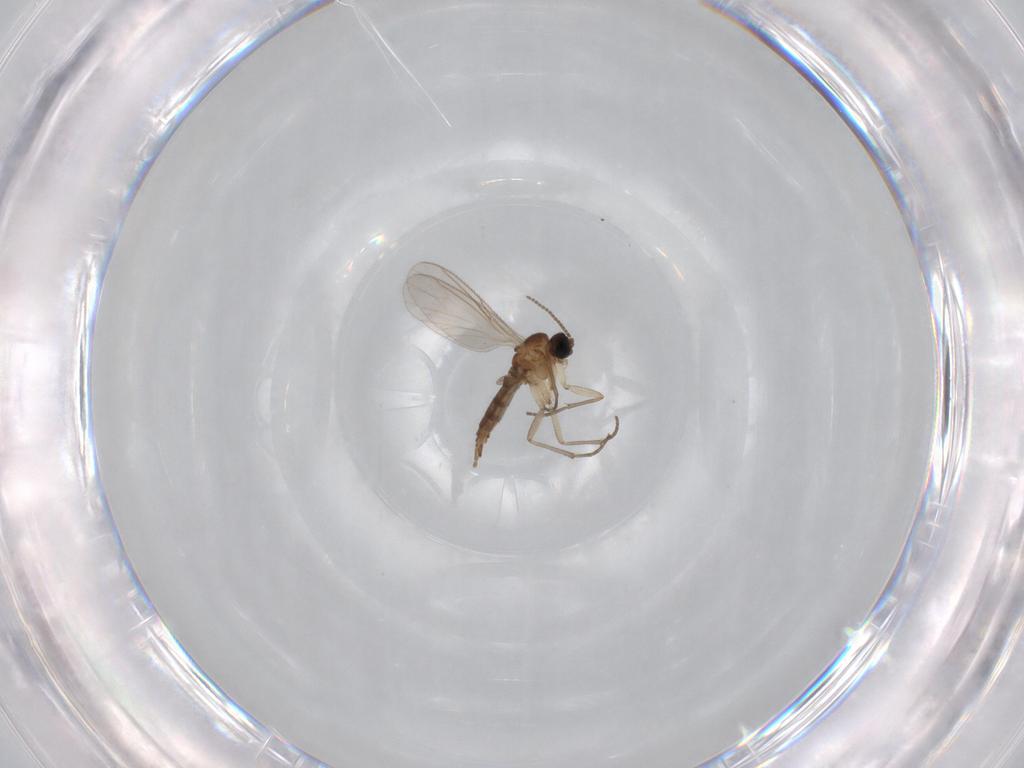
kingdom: Animalia
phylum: Arthropoda
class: Insecta
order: Diptera
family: Sciaridae
